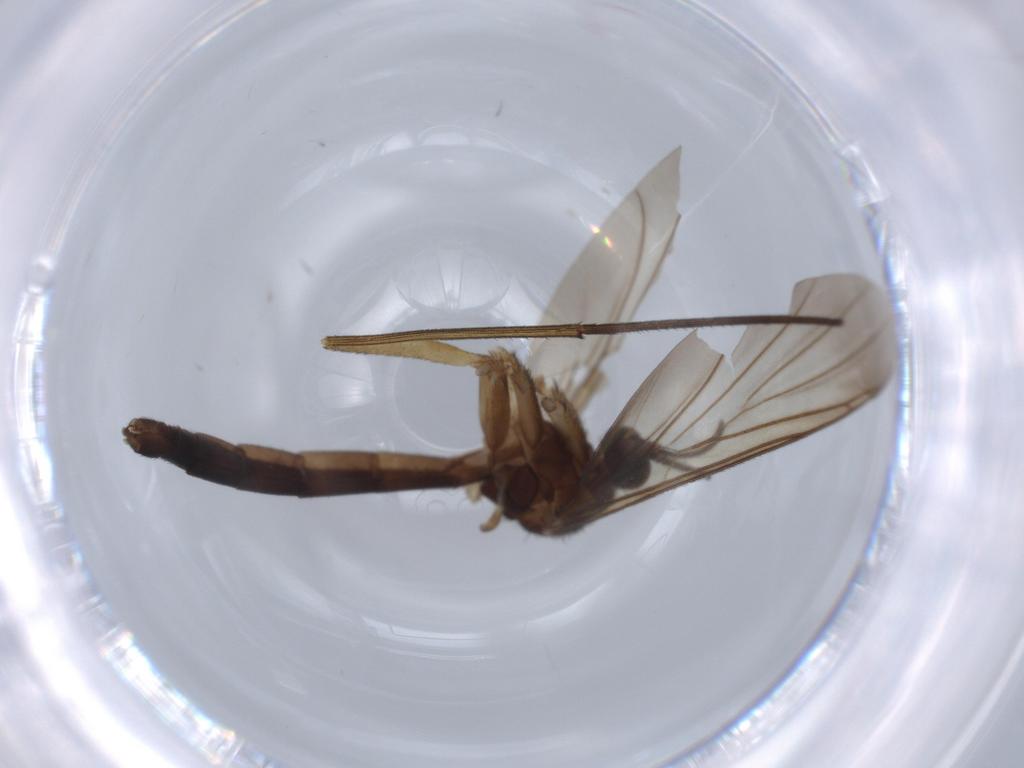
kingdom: Animalia
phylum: Arthropoda
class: Insecta
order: Diptera
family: Keroplatidae
